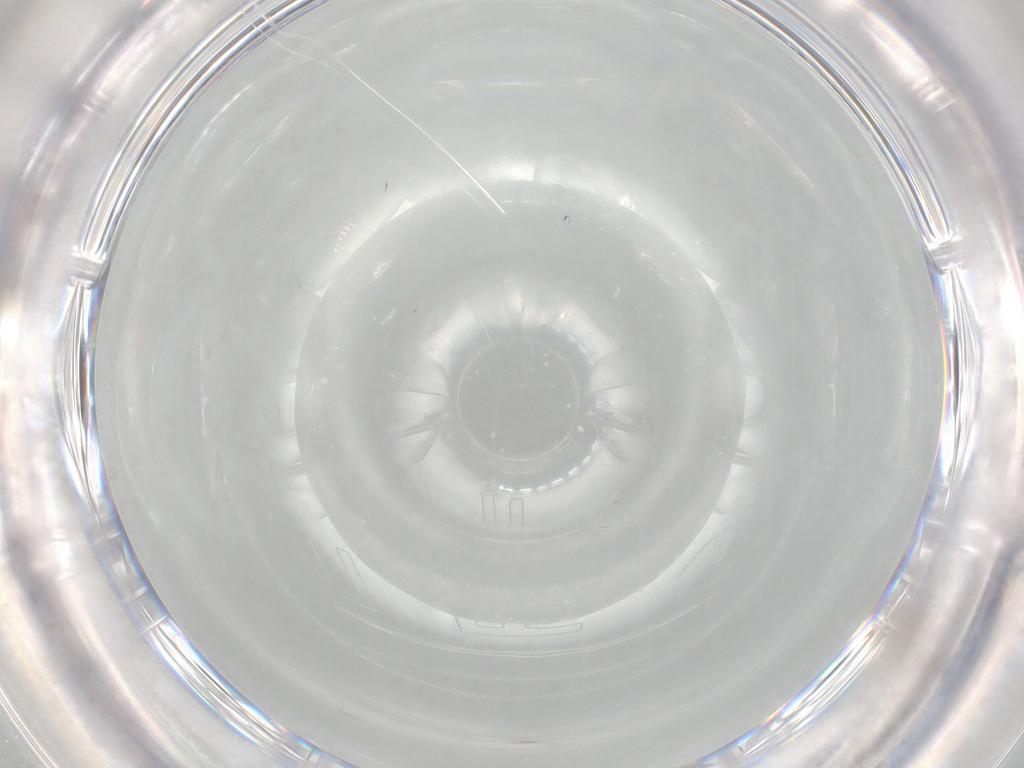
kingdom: Animalia
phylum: Arthropoda
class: Insecta
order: Diptera
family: Cecidomyiidae
